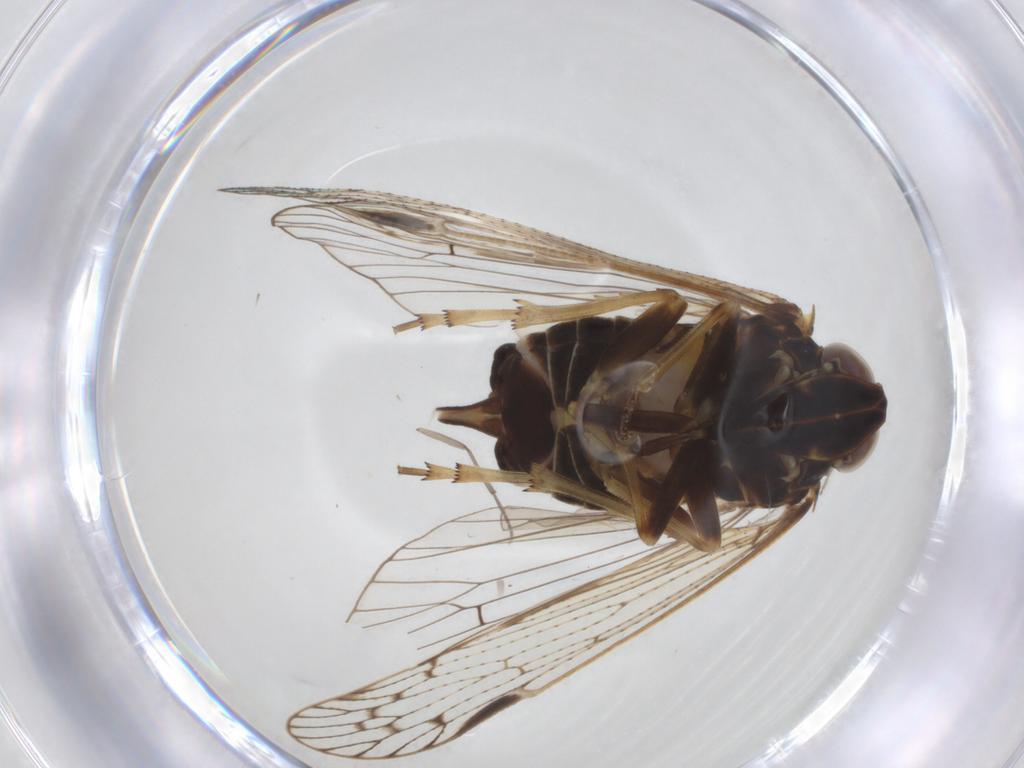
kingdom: Animalia
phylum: Arthropoda
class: Insecta
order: Hemiptera
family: Cixiidae
